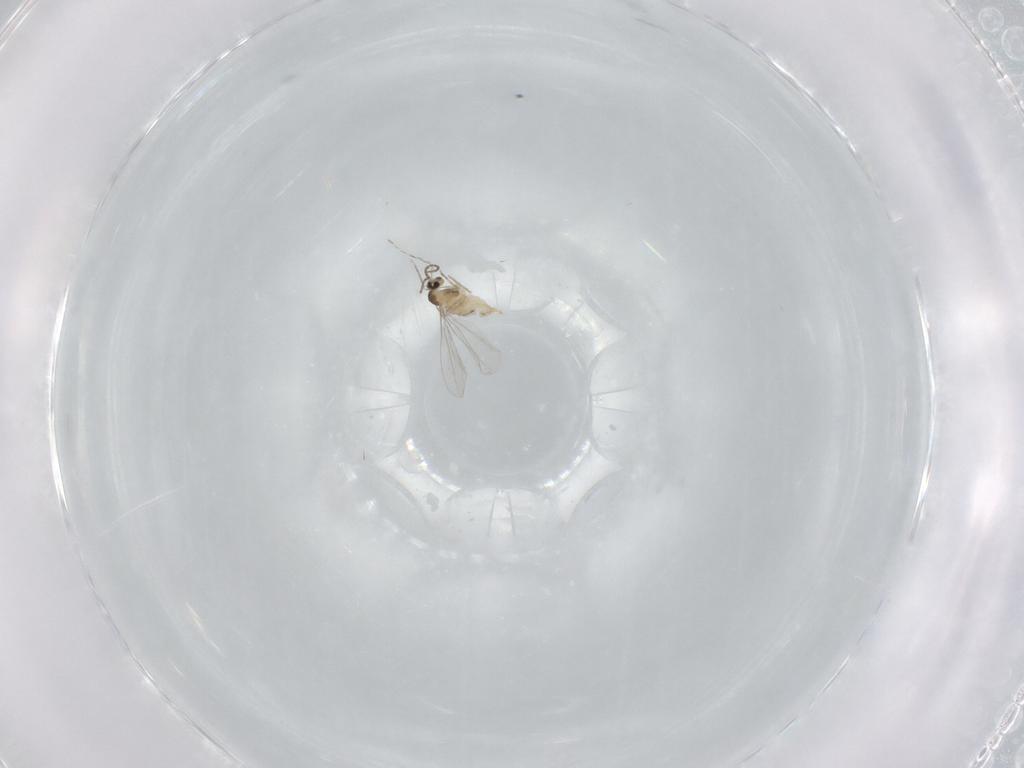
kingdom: Animalia
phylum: Arthropoda
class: Insecta
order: Diptera
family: Cecidomyiidae
